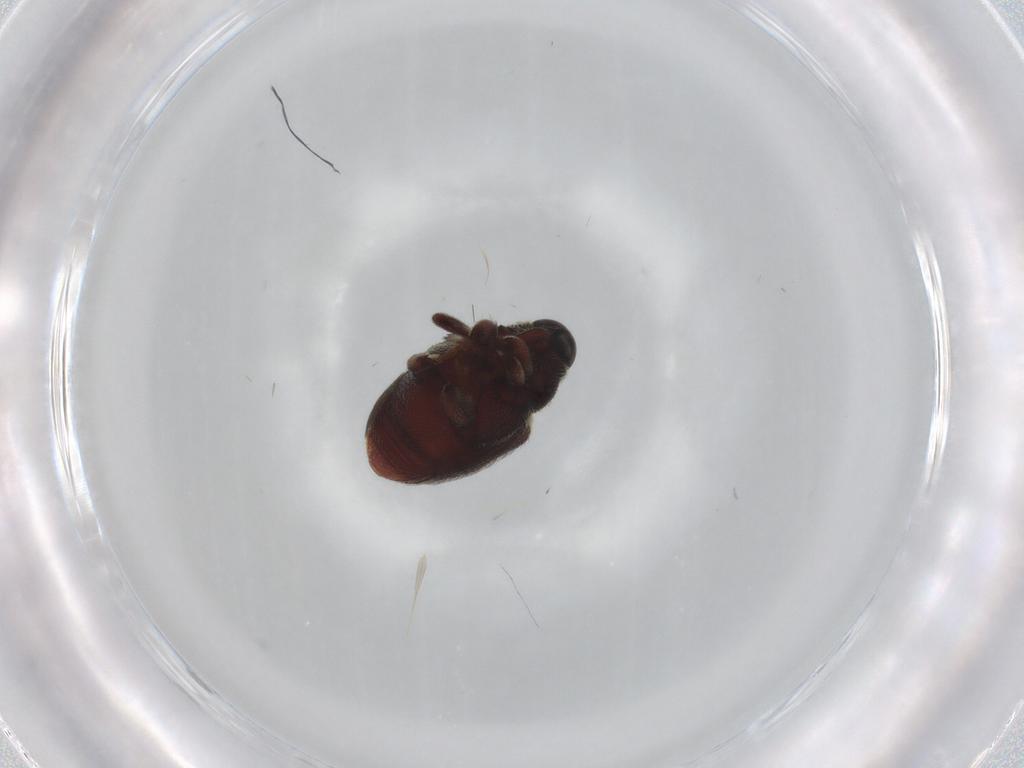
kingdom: Animalia
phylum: Arthropoda
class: Insecta
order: Coleoptera
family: Curculionidae
